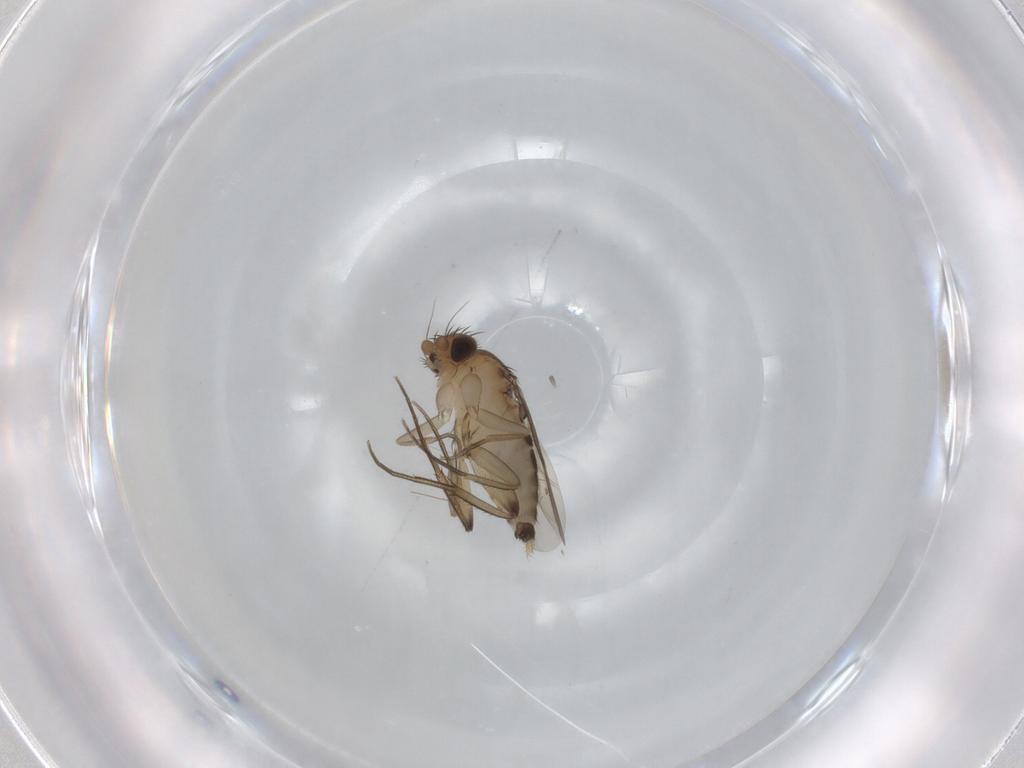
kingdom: Animalia
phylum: Arthropoda
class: Insecta
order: Diptera
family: Phoridae
